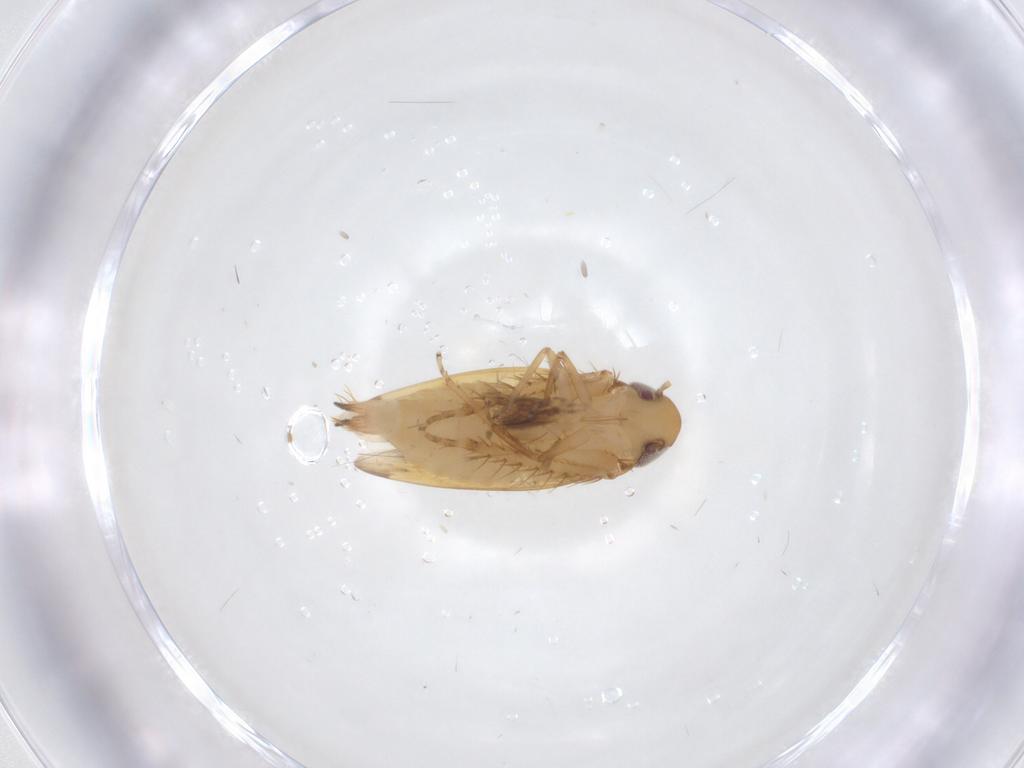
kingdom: Animalia
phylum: Arthropoda
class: Insecta
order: Hemiptera
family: Cicadellidae
